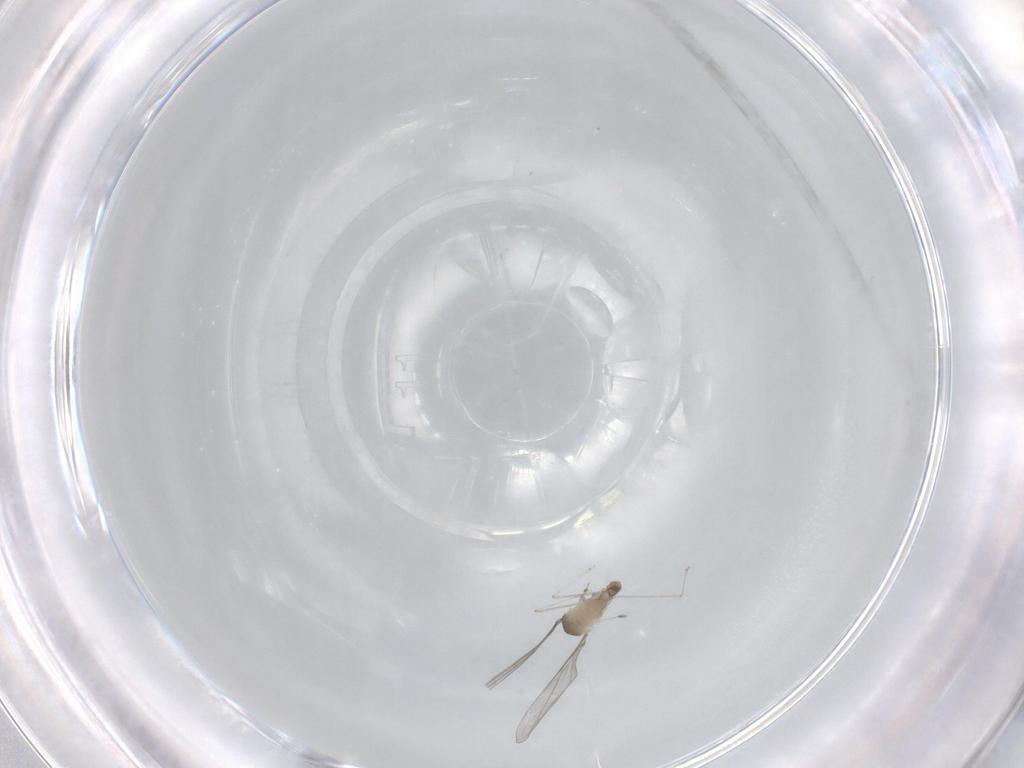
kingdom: Animalia
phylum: Arthropoda
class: Insecta
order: Diptera
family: Cecidomyiidae
